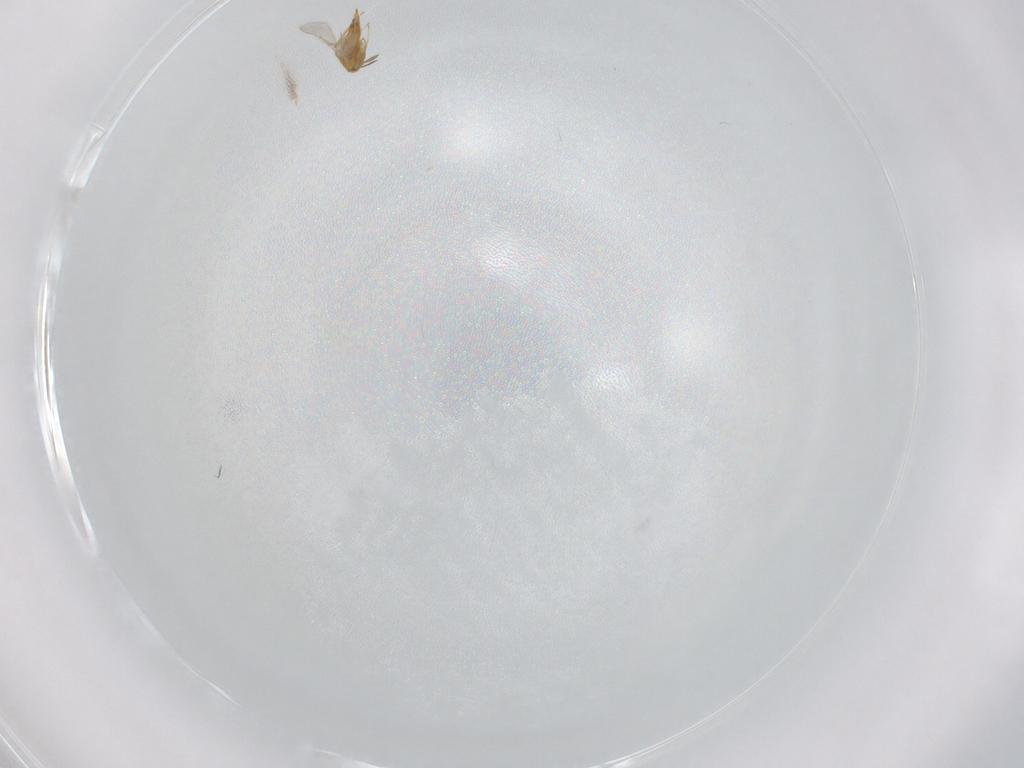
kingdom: Animalia
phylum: Arthropoda
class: Insecta
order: Hymenoptera
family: Aphelinidae
